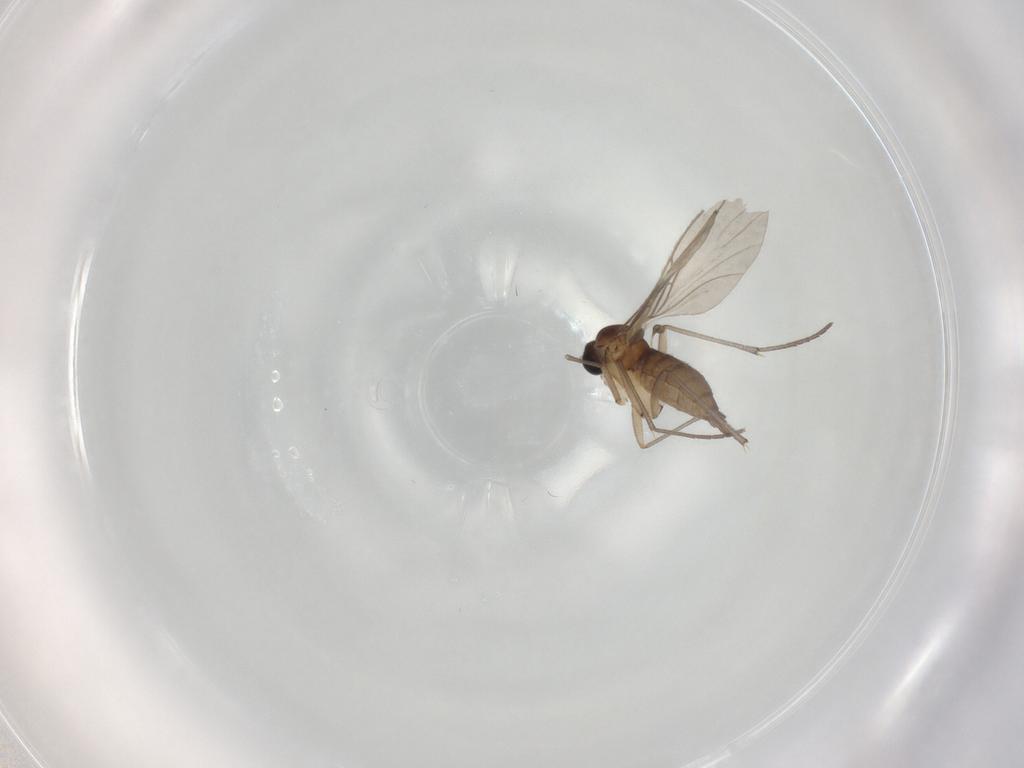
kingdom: Animalia
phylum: Arthropoda
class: Insecta
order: Diptera
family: Sciaridae
